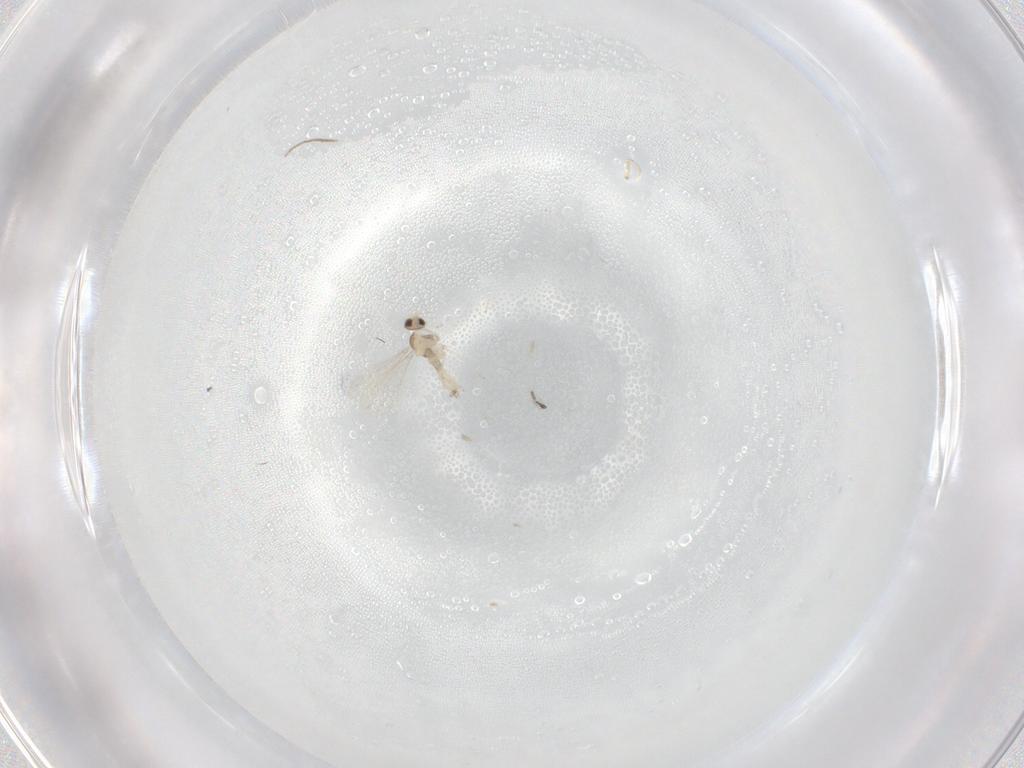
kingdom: Animalia
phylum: Arthropoda
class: Insecta
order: Diptera
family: Cecidomyiidae
